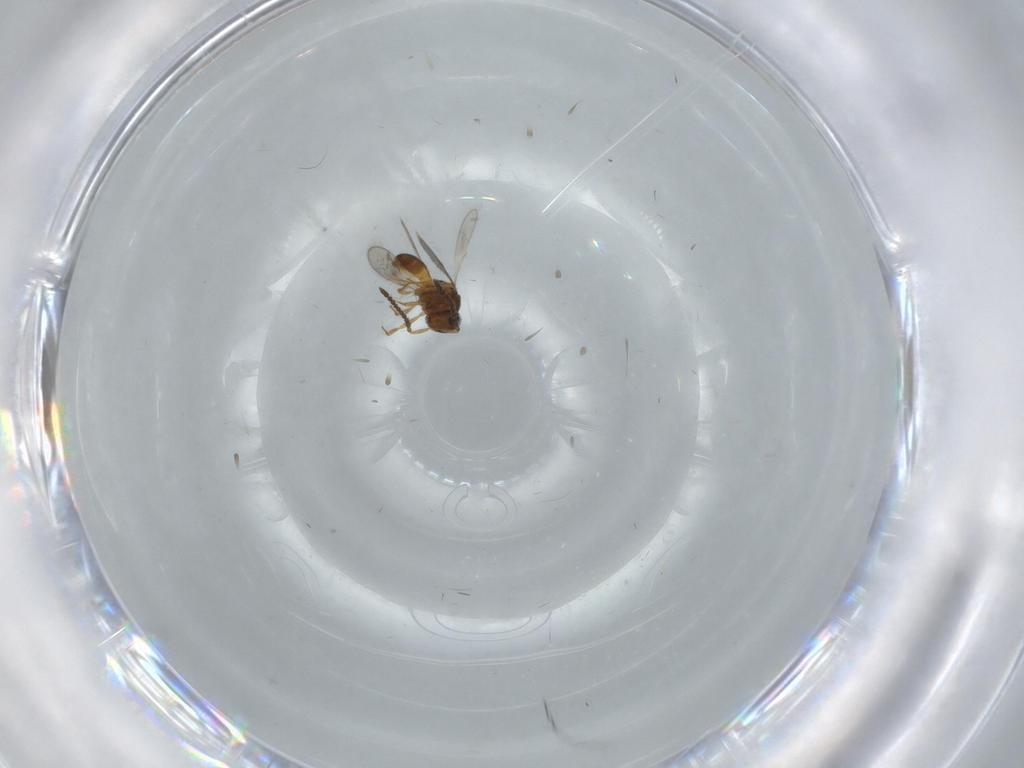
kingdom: Animalia
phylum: Arthropoda
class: Insecta
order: Hymenoptera
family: Scelionidae
